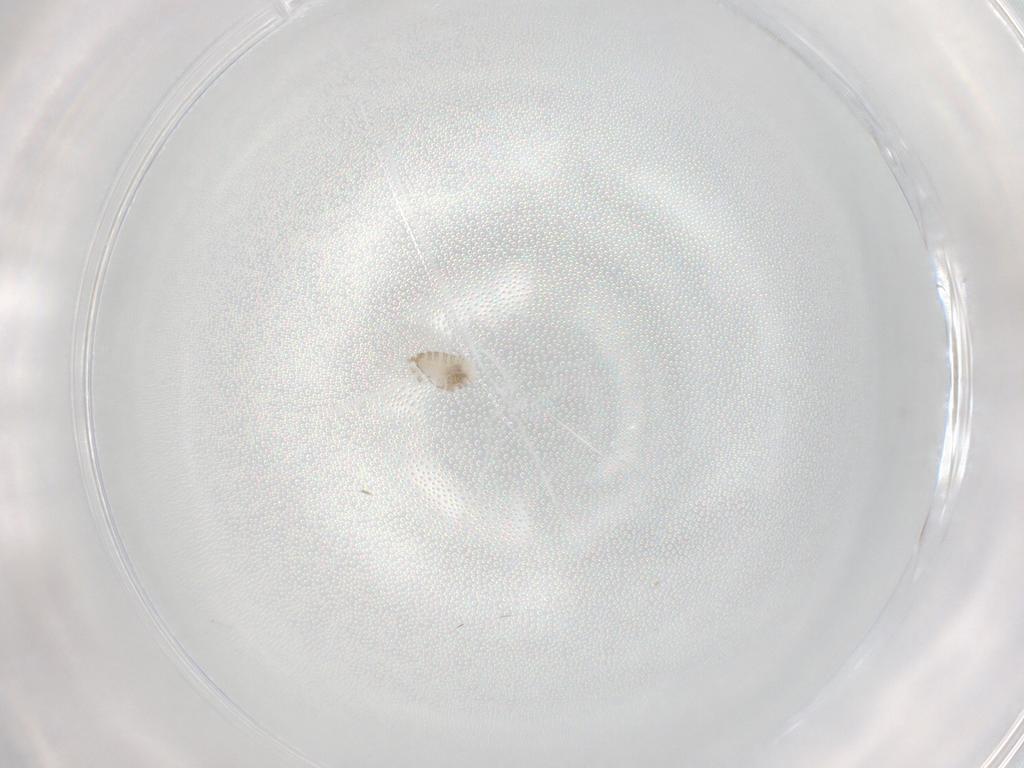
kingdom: Animalia
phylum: Arthropoda
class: Insecta
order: Diptera
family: Cecidomyiidae
